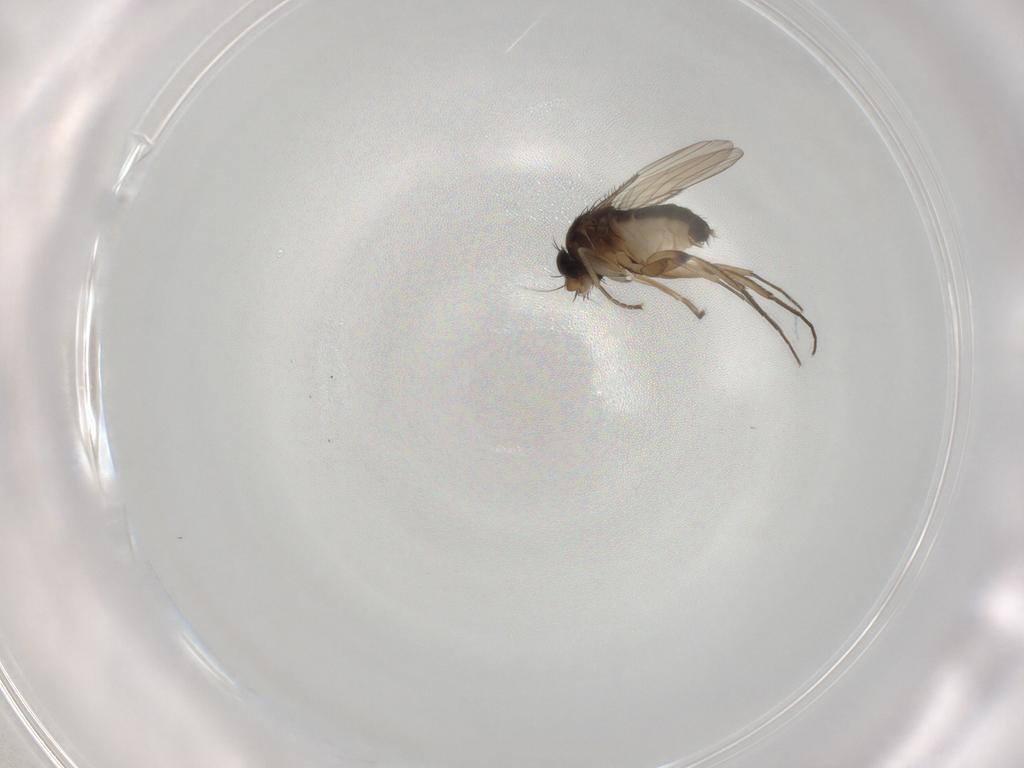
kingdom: Animalia
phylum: Arthropoda
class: Insecta
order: Diptera
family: Phoridae
